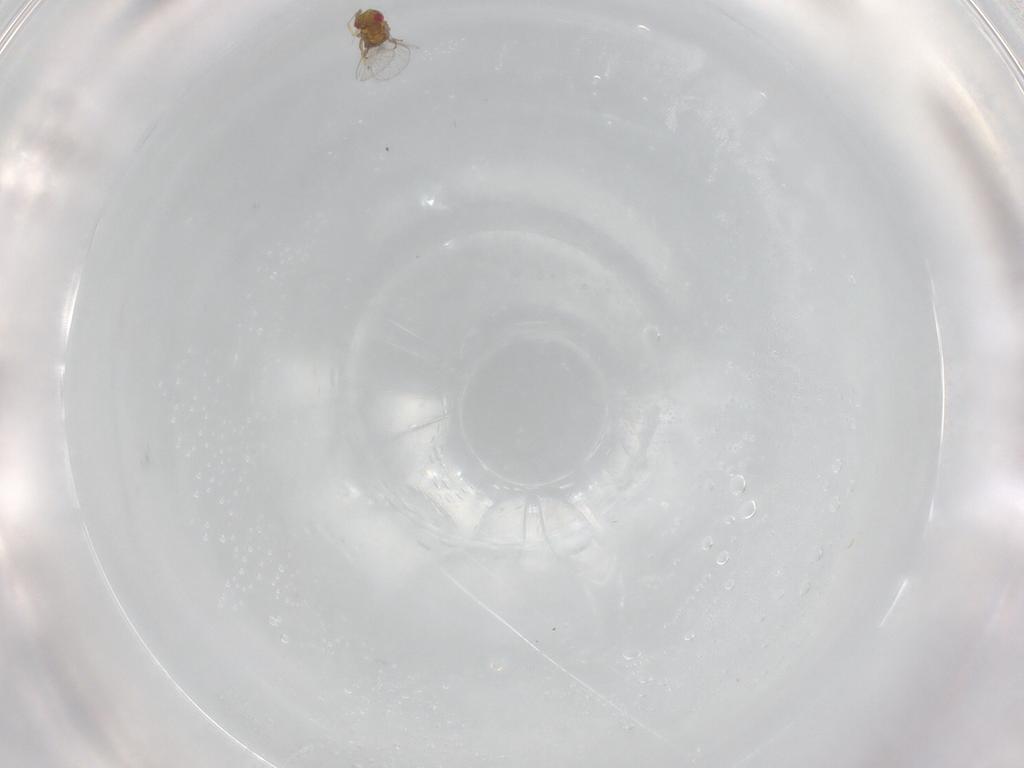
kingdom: Animalia
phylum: Arthropoda
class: Insecta
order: Hymenoptera
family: Trichogrammatidae
